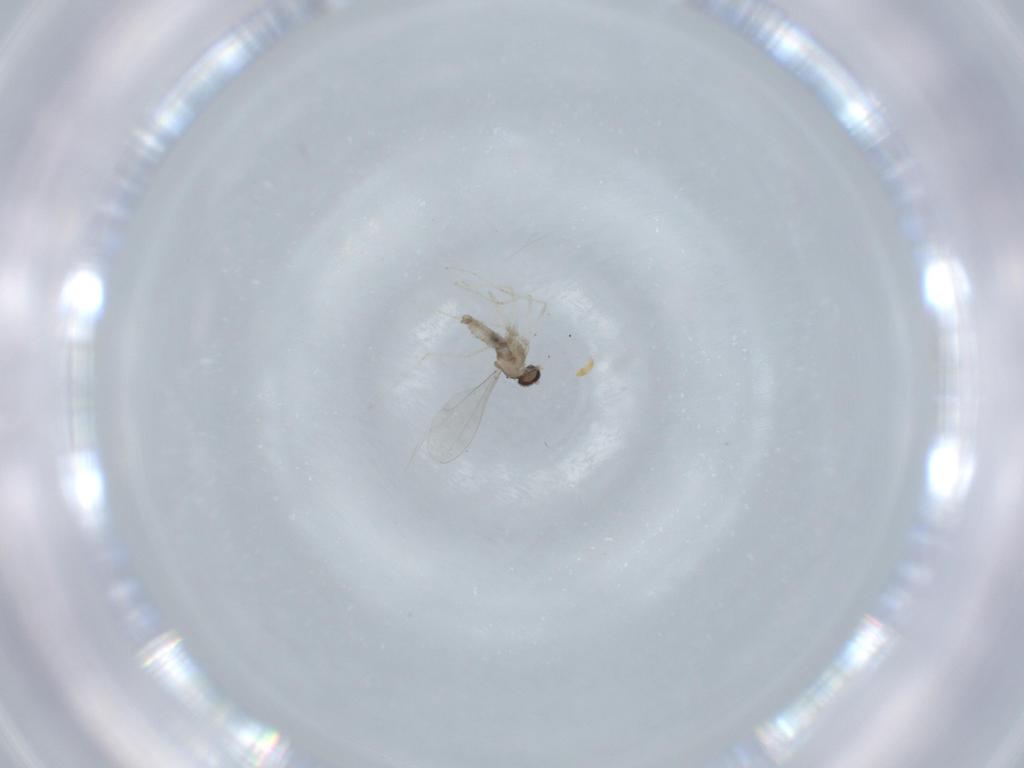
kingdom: Animalia
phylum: Arthropoda
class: Insecta
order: Diptera
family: Cecidomyiidae
